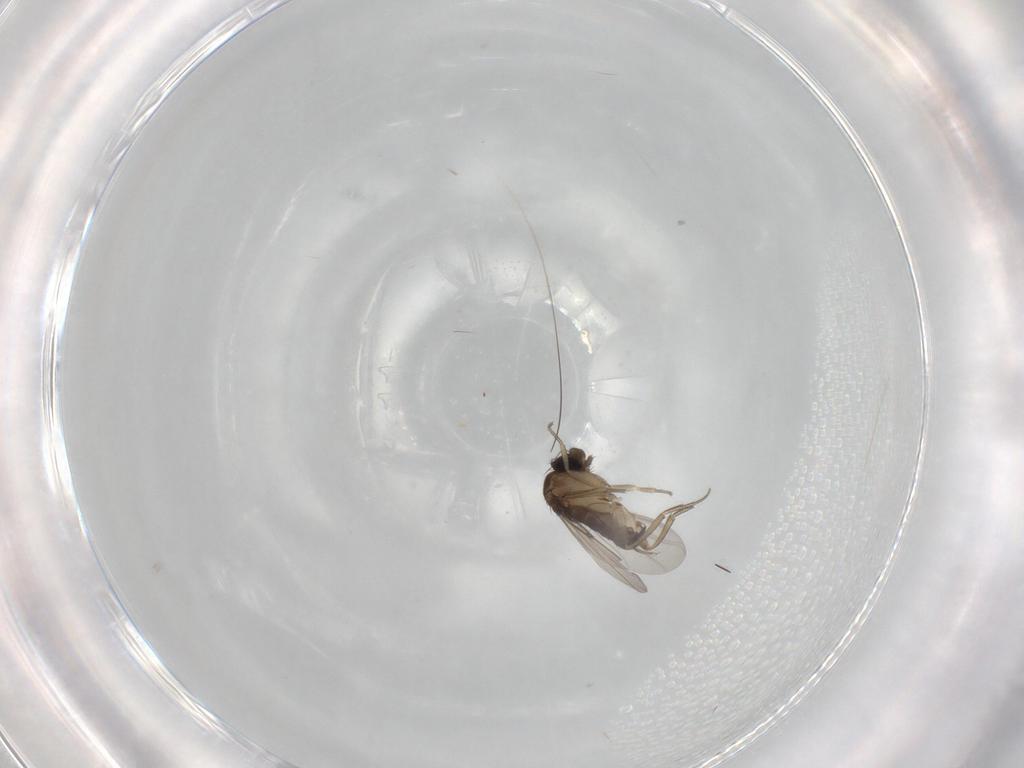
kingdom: Animalia
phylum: Arthropoda
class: Insecta
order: Diptera
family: Phoridae
